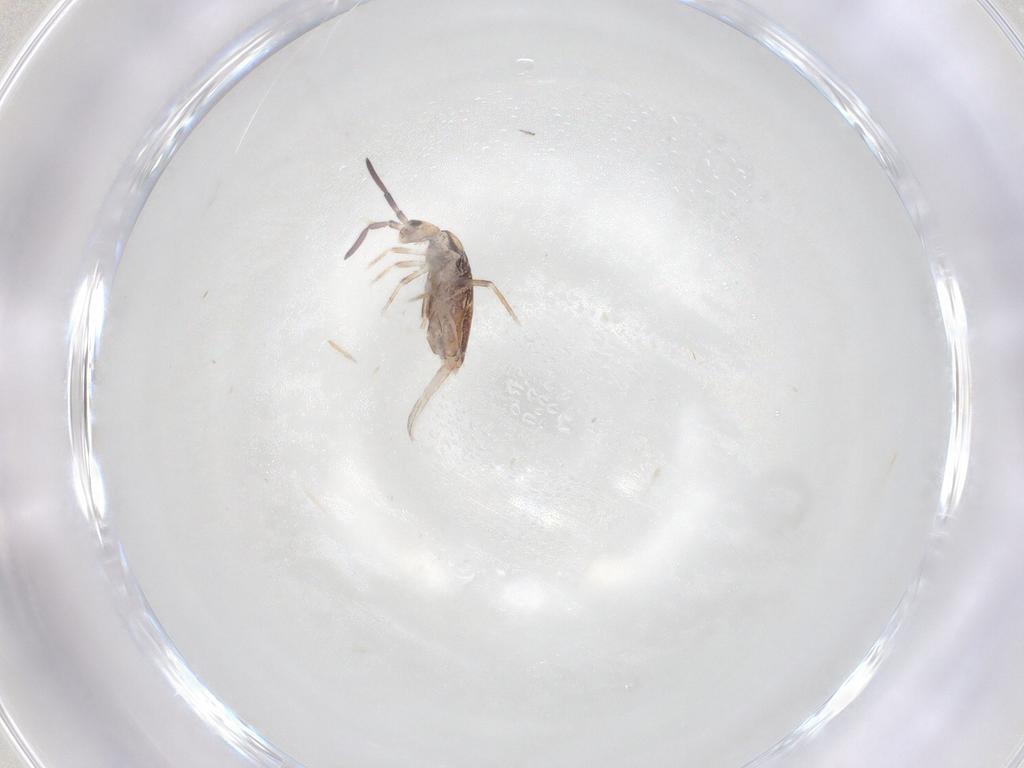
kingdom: Animalia
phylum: Arthropoda
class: Collembola
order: Entomobryomorpha
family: Entomobryidae
